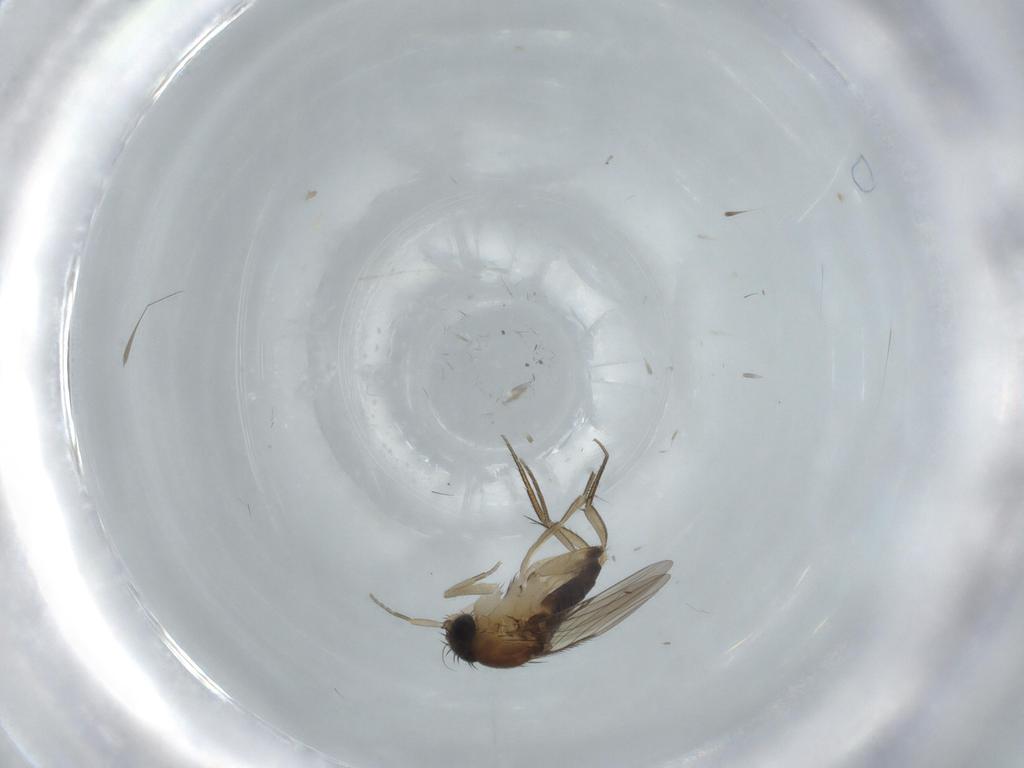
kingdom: Animalia
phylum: Arthropoda
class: Insecta
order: Diptera
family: Phoridae
